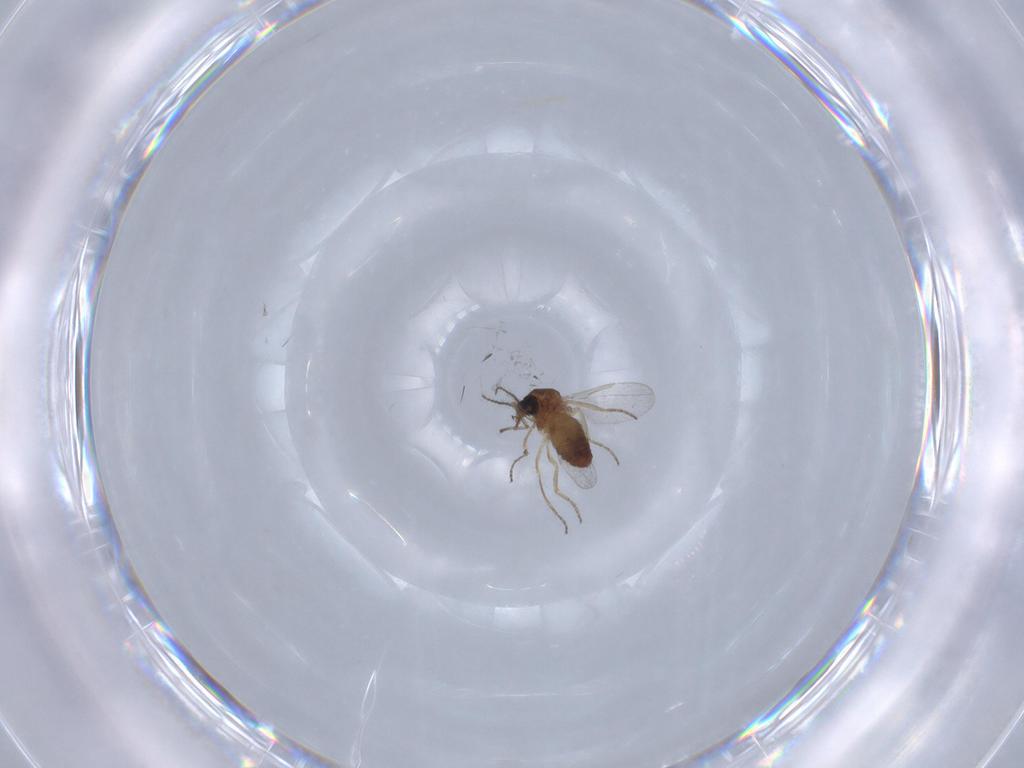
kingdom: Animalia
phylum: Arthropoda
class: Insecta
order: Diptera
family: Ceratopogonidae
